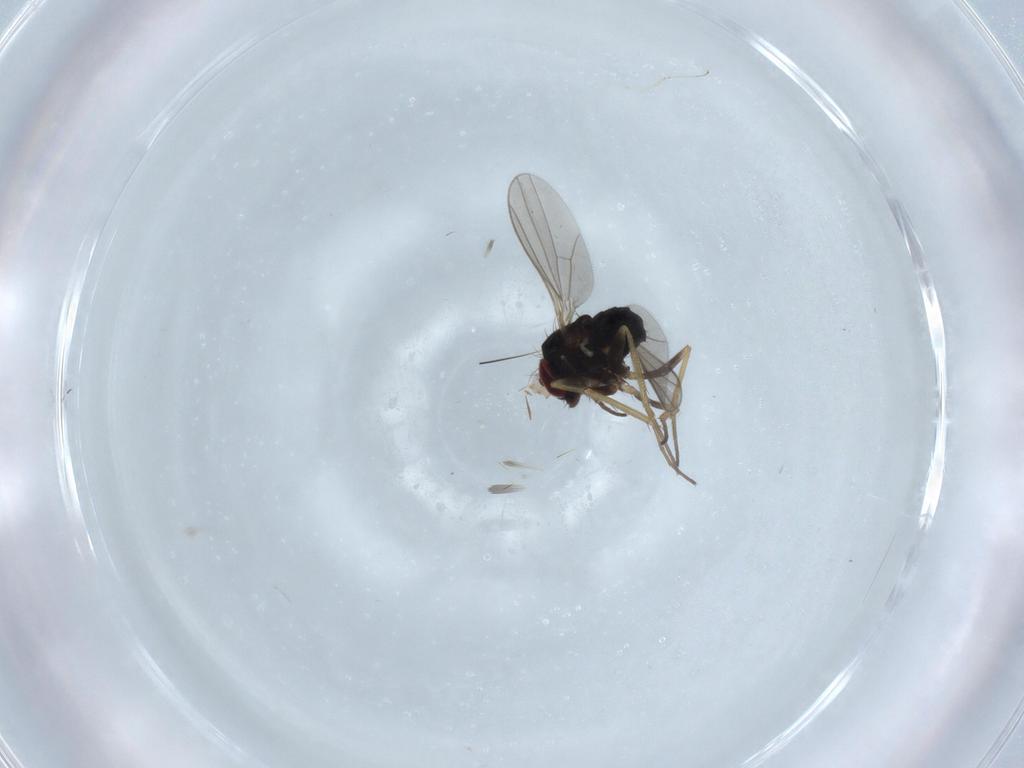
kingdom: Animalia
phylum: Arthropoda
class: Insecta
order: Diptera
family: Chironomidae
